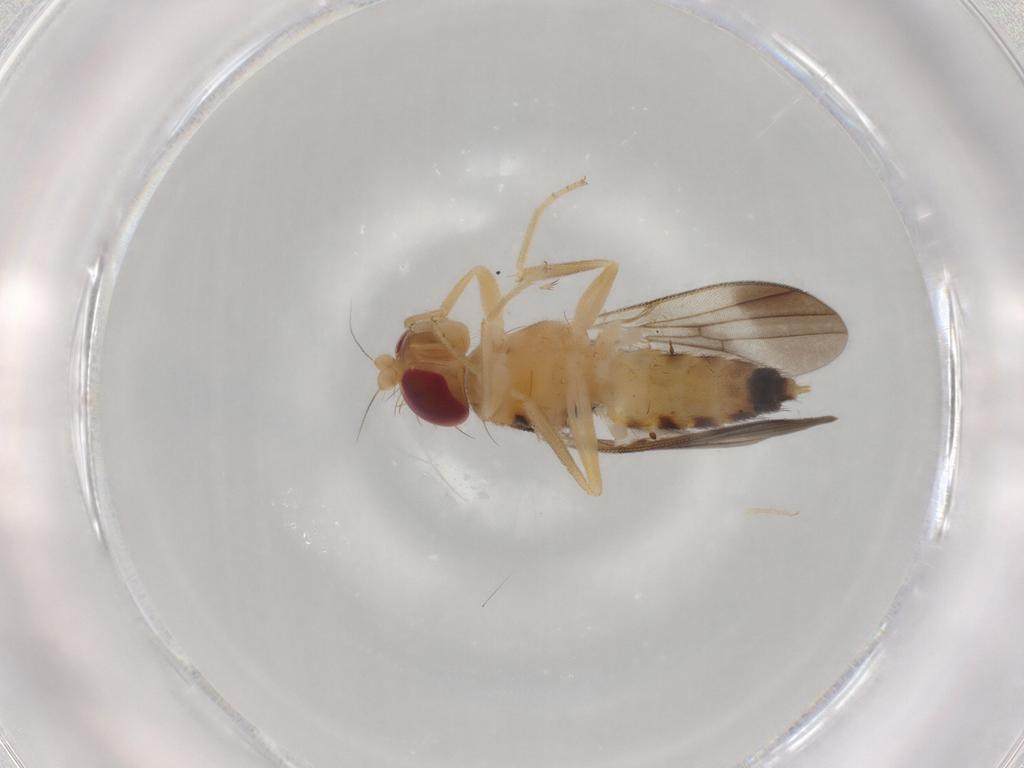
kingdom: Animalia
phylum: Arthropoda
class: Insecta
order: Diptera
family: Clusiidae
